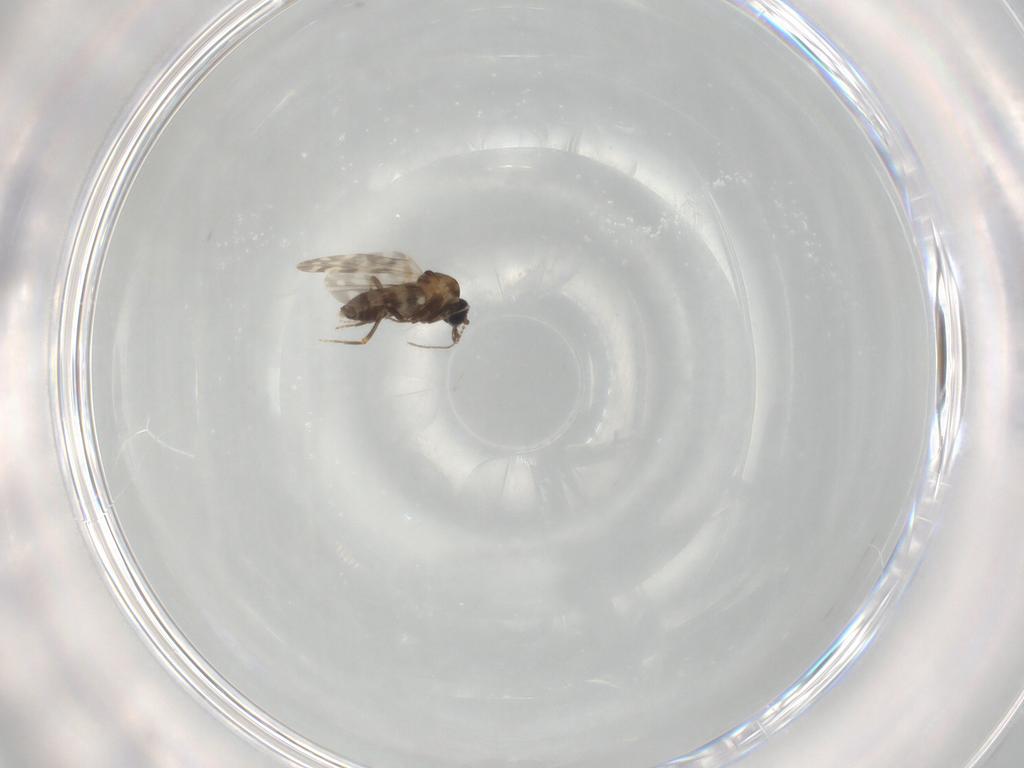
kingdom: Animalia
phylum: Arthropoda
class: Insecta
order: Diptera
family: Ceratopogonidae
